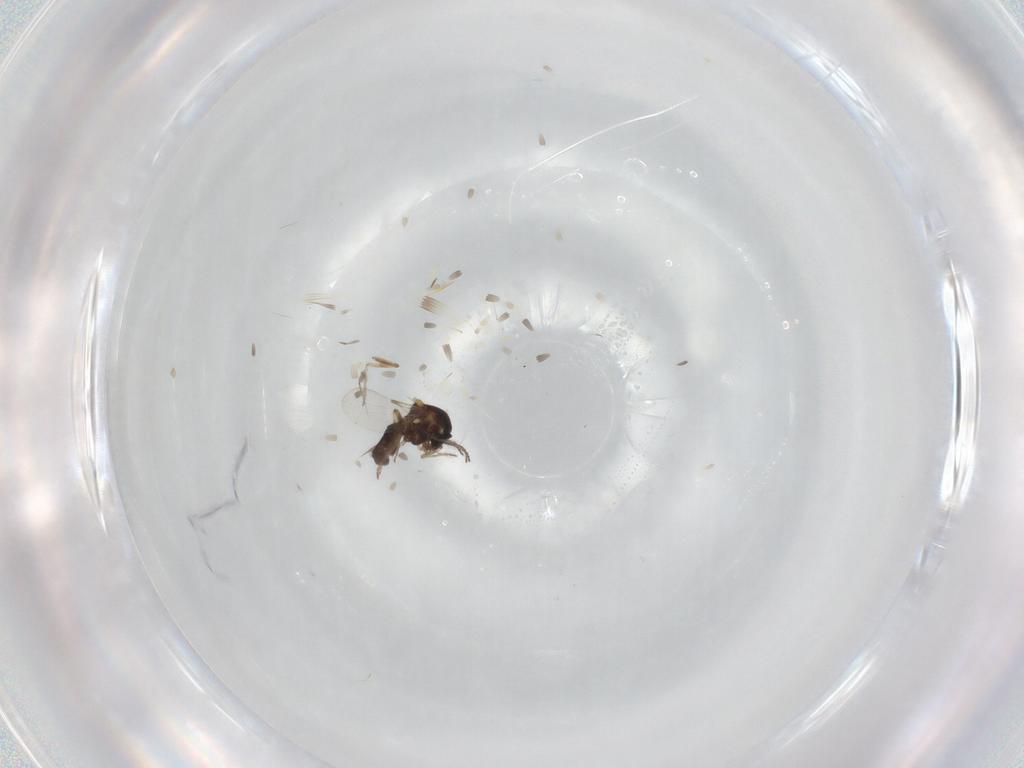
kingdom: Animalia
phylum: Arthropoda
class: Insecta
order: Diptera
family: Ceratopogonidae
